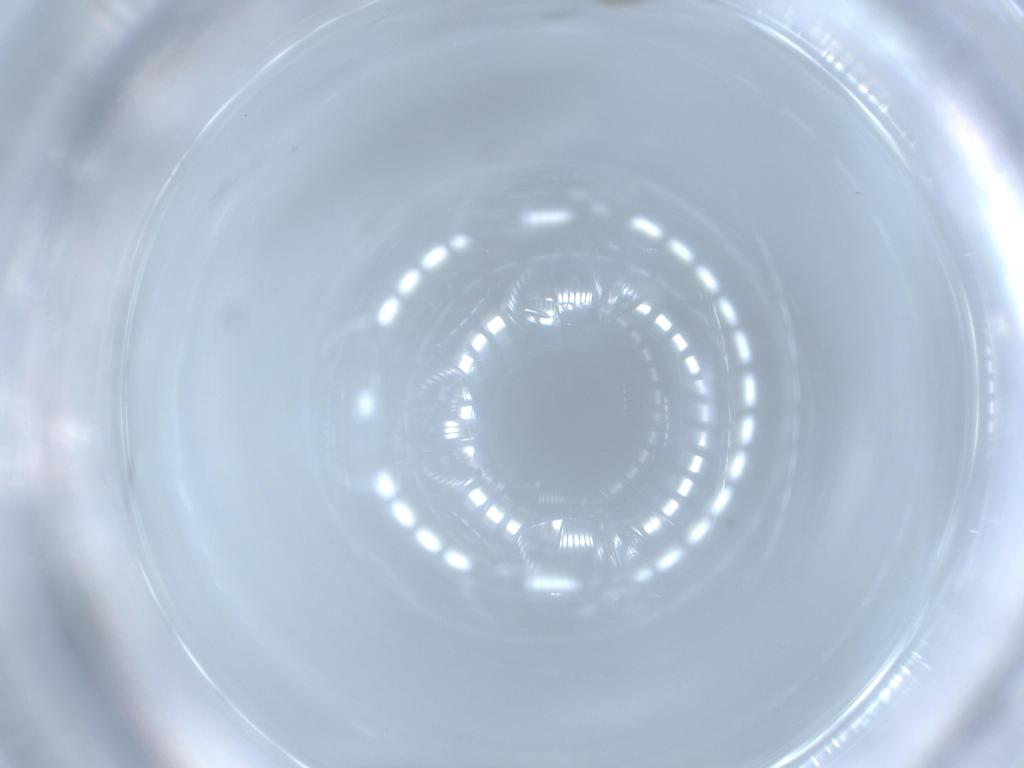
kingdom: Animalia
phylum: Arthropoda
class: Insecta
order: Diptera
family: Cecidomyiidae
